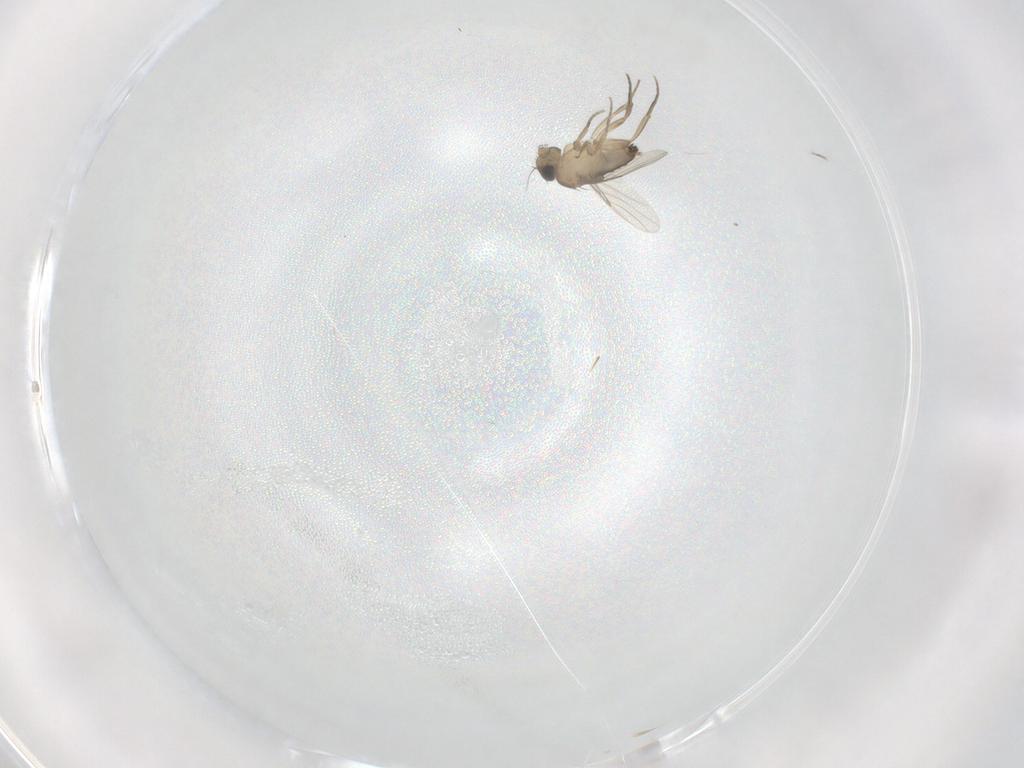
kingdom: Animalia
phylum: Arthropoda
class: Insecta
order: Diptera
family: Phoridae
